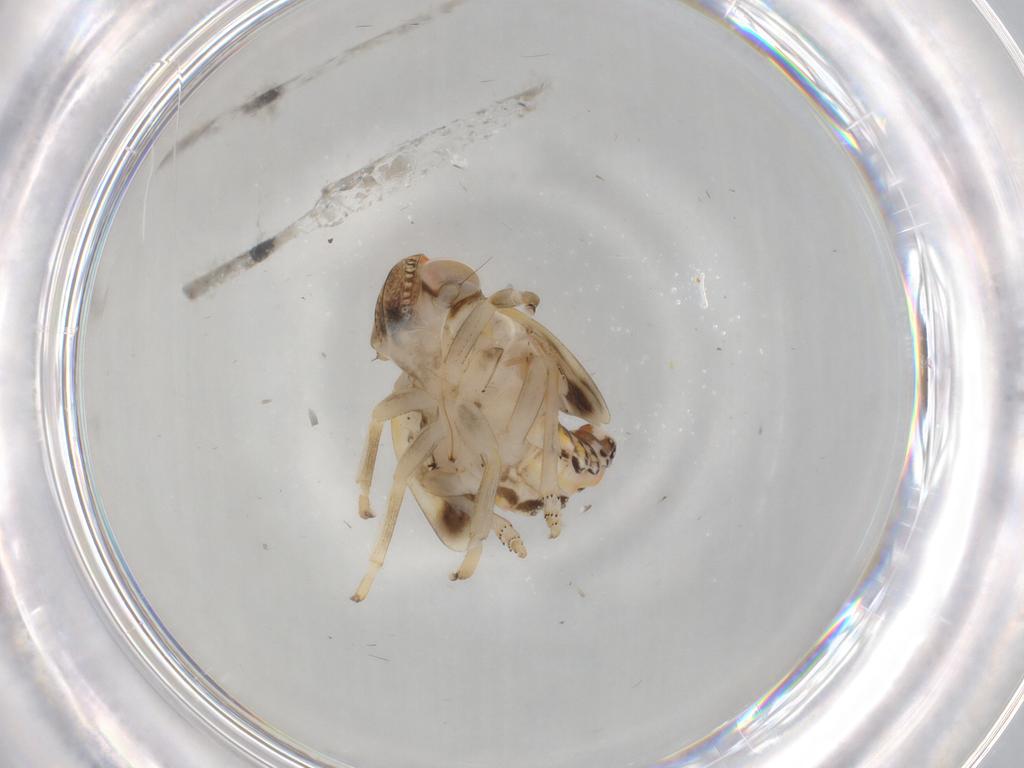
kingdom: Animalia
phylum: Arthropoda
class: Insecta
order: Hemiptera
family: Nogodinidae
